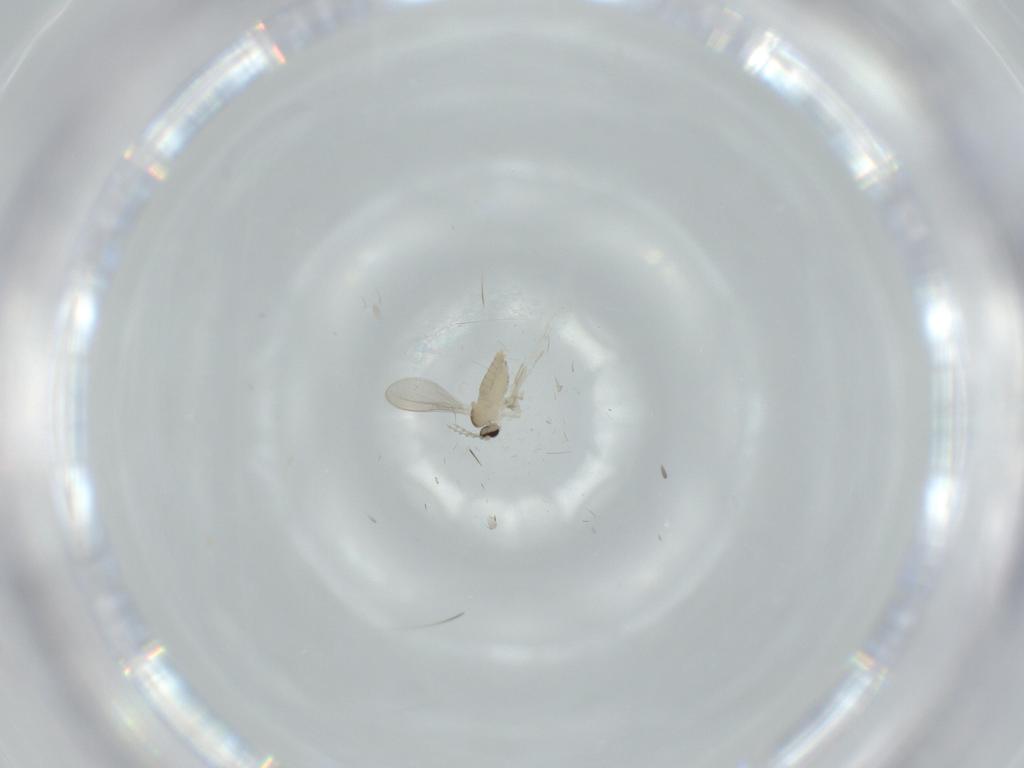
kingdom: Animalia
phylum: Arthropoda
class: Insecta
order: Diptera
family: Cecidomyiidae
